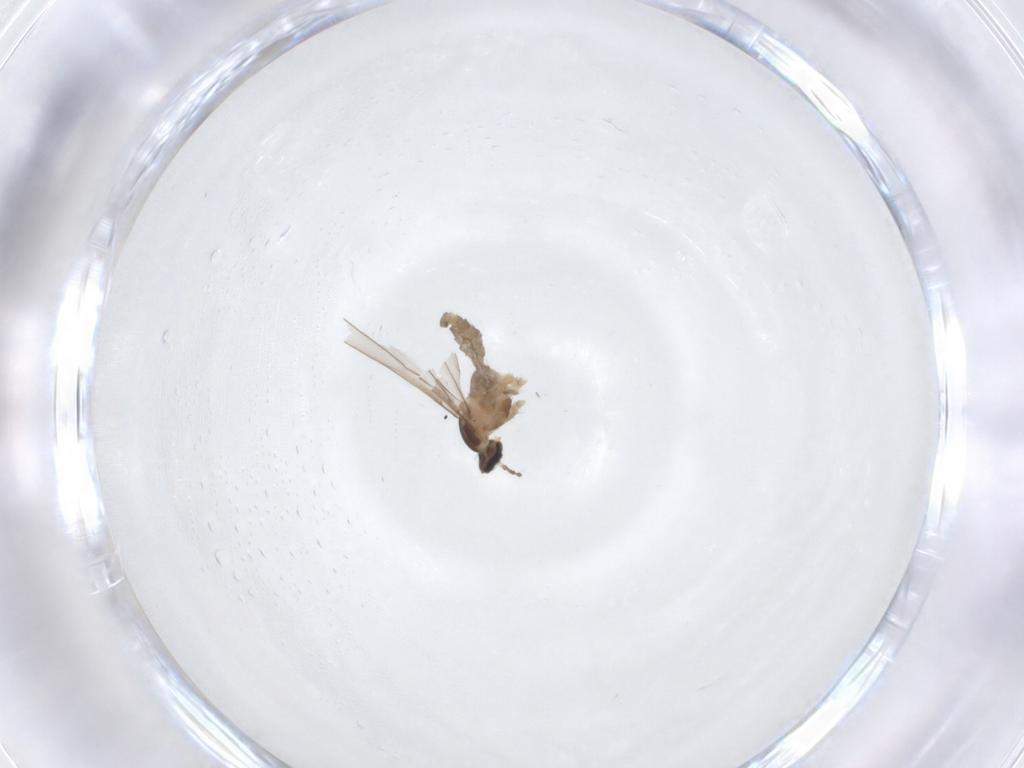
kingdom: Animalia
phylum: Arthropoda
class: Insecta
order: Diptera
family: Cecidomyiidae
